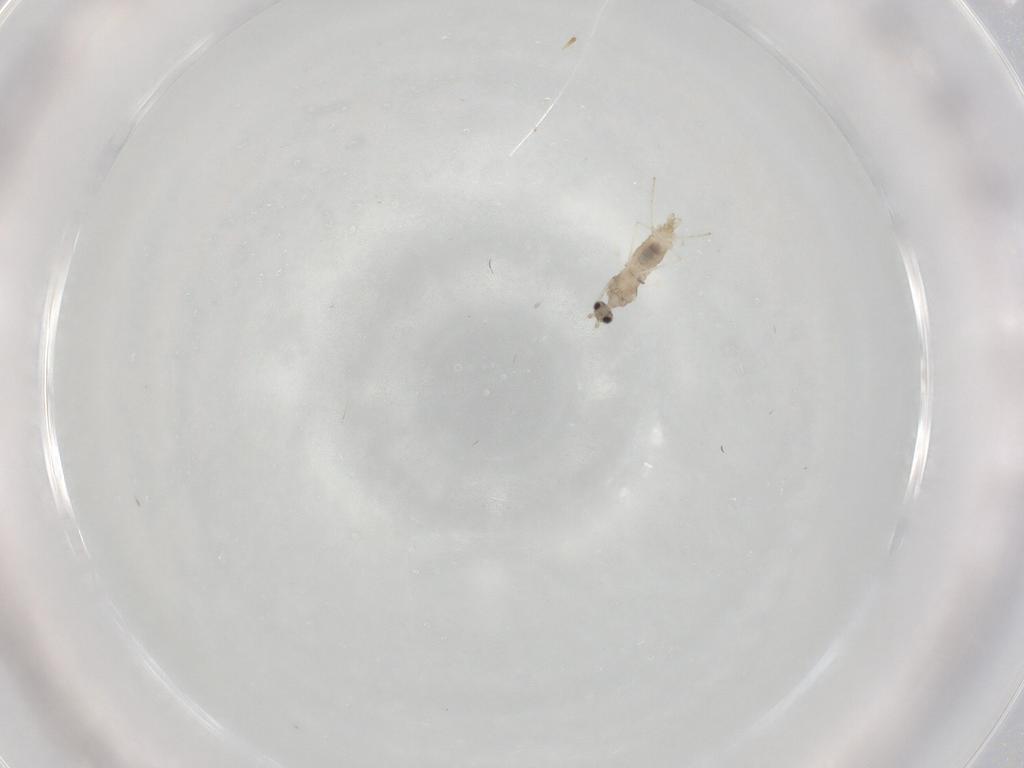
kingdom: Animalia
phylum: Arthropoda
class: Insecta
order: Diptera
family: Cecidomyiidae
